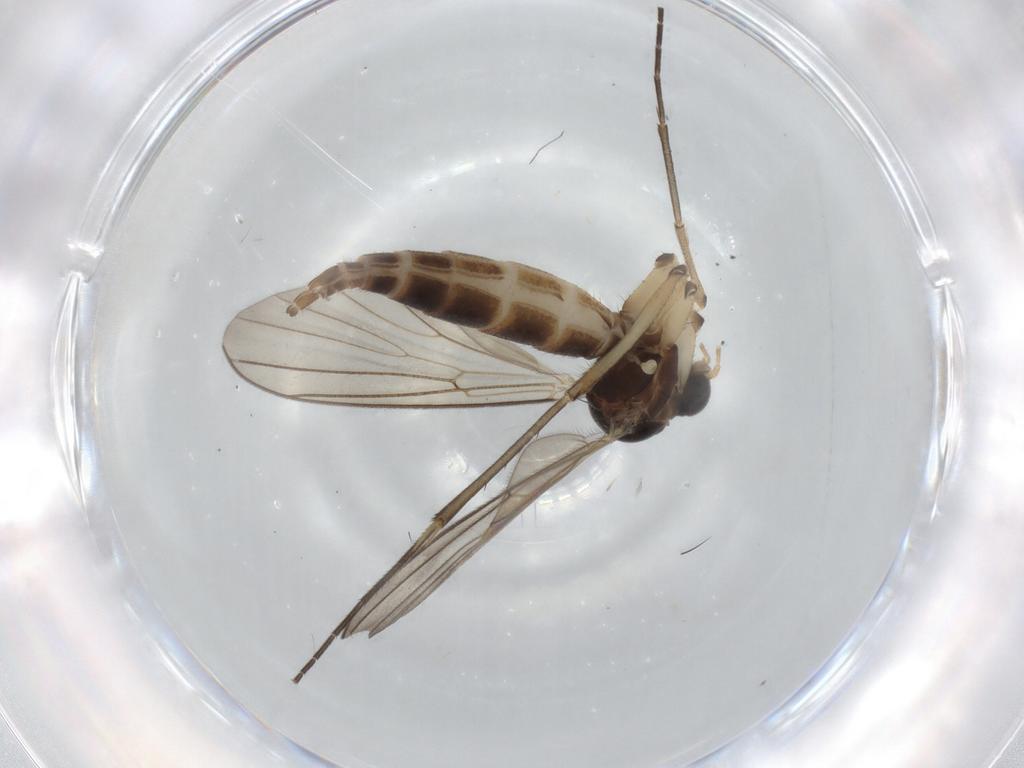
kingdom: Animalia
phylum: Arthropoda
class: Insecta
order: Diptera
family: Mycetophilidae
